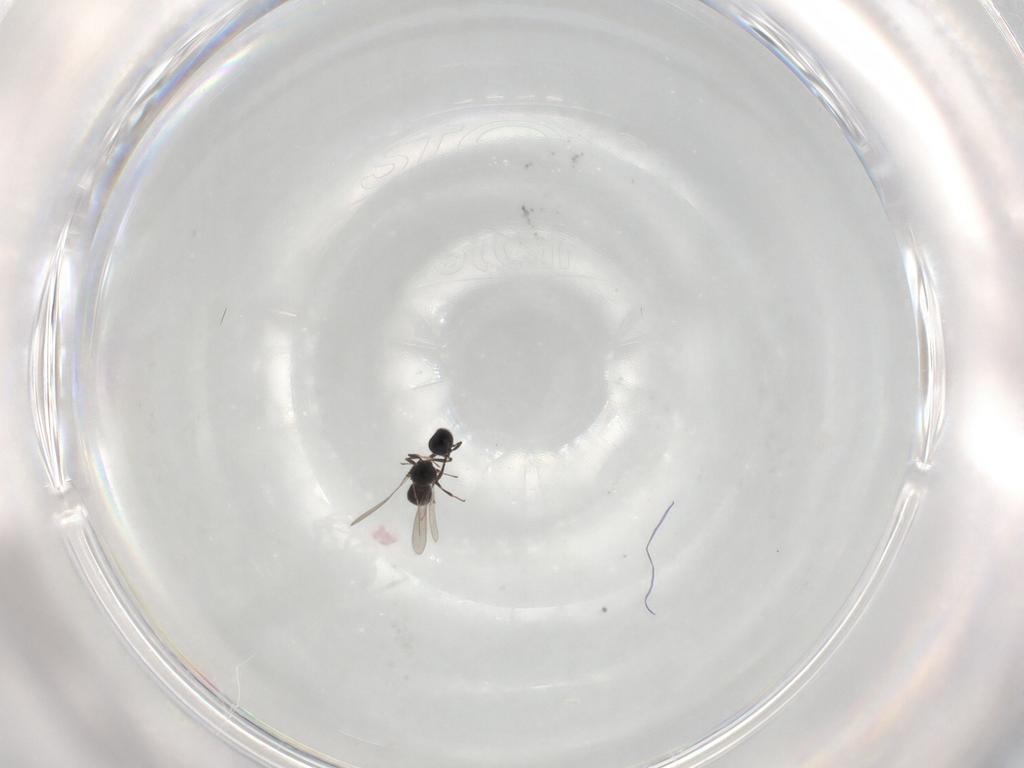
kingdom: Animalia
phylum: Arthropoda
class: Insecta
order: Hymenoptera
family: Scelionidae
